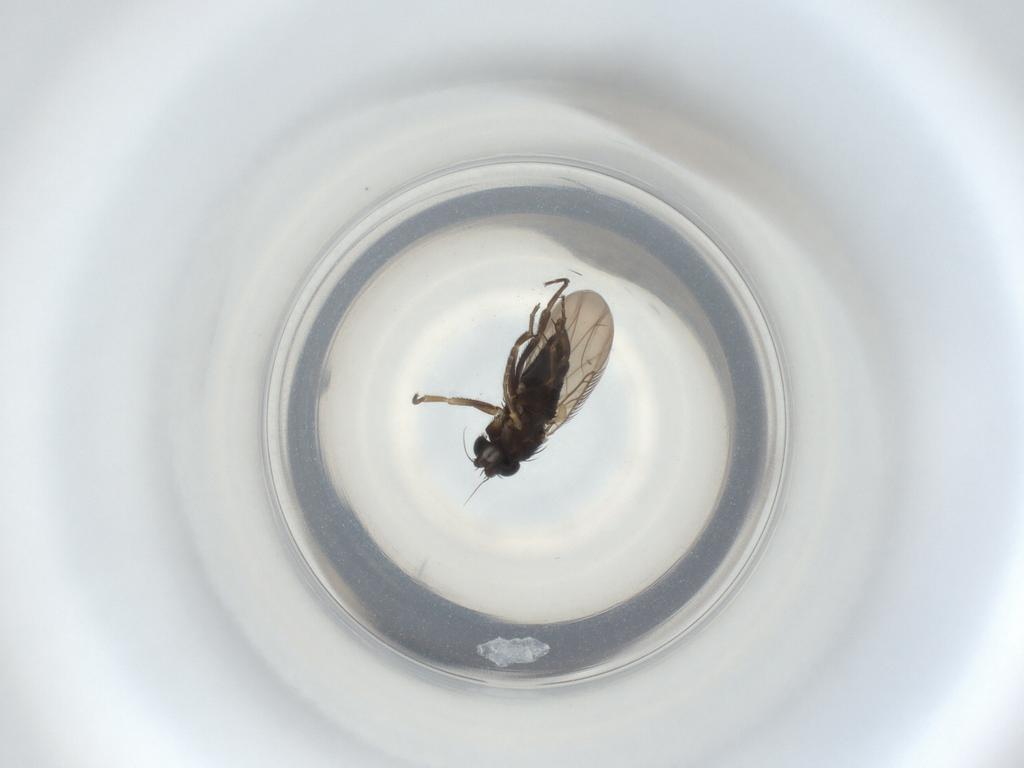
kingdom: Animalia
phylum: Arthropoda
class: Insecta
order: Diptera
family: Phoridae
